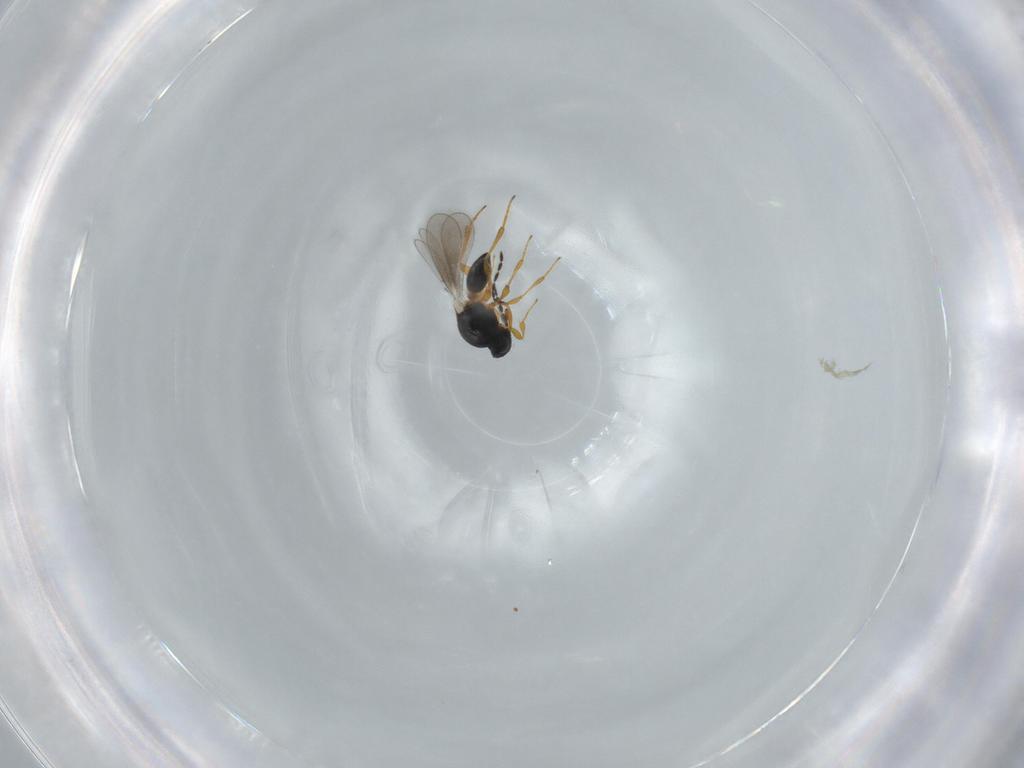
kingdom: Animalia
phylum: Arthropoda
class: Insecta
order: Hymenoptera
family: Platygastridae
